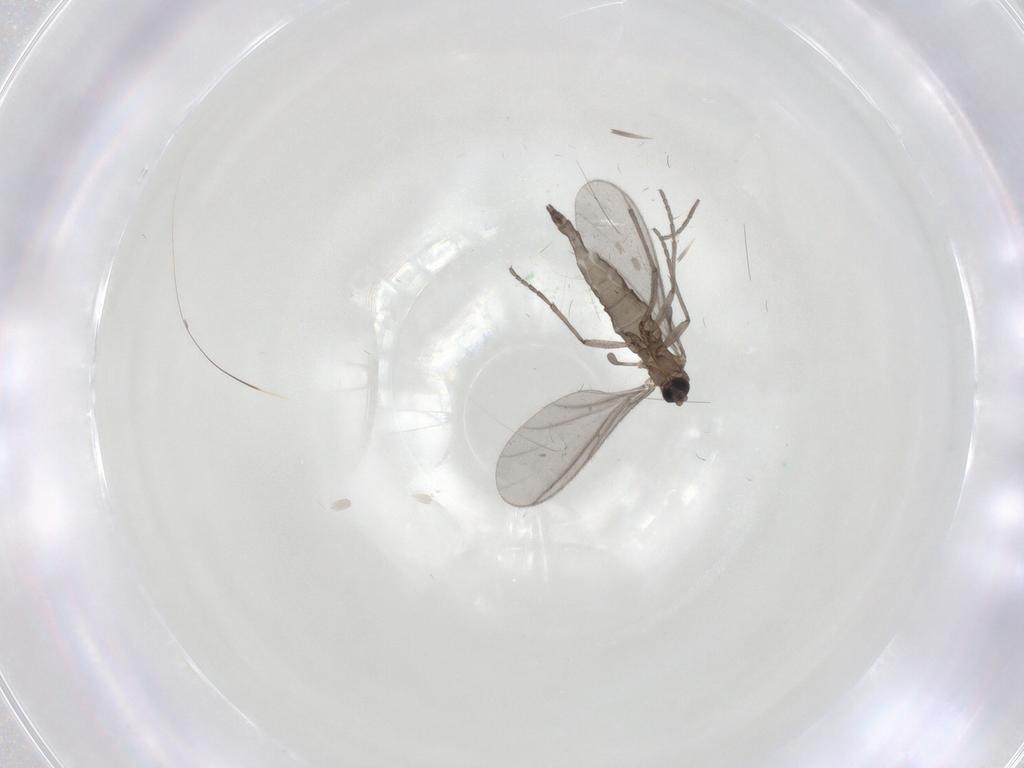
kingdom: Animalia
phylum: Arthropoda
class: Insecta
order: Diptera
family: Sciaridae
